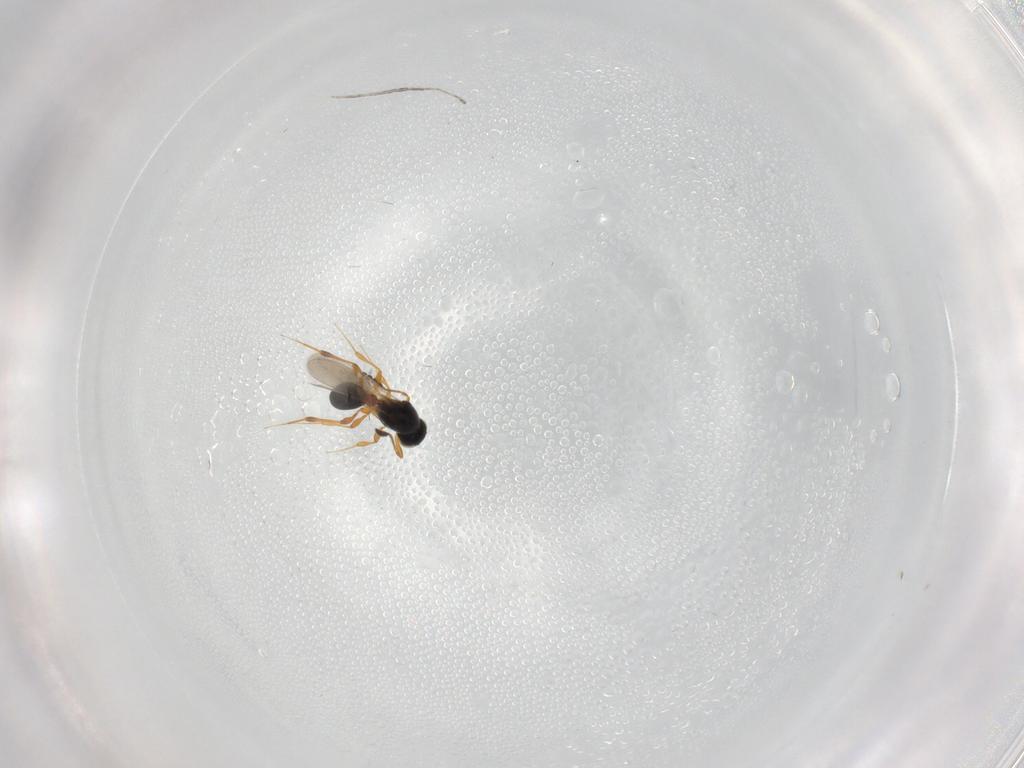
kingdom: Animalia
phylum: Arthropoda
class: Insecta
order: Hymenoptera
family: Platygastridae
